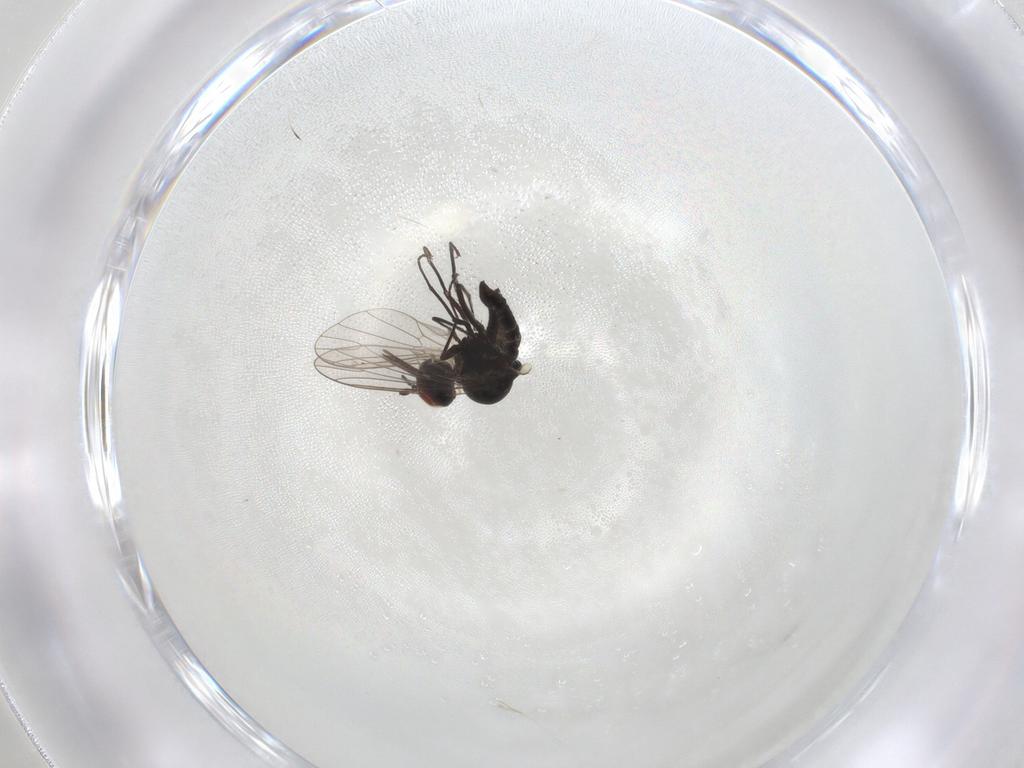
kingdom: Animalia
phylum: Arthropoda
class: Insecta
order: Diptera
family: Bombyliidae
